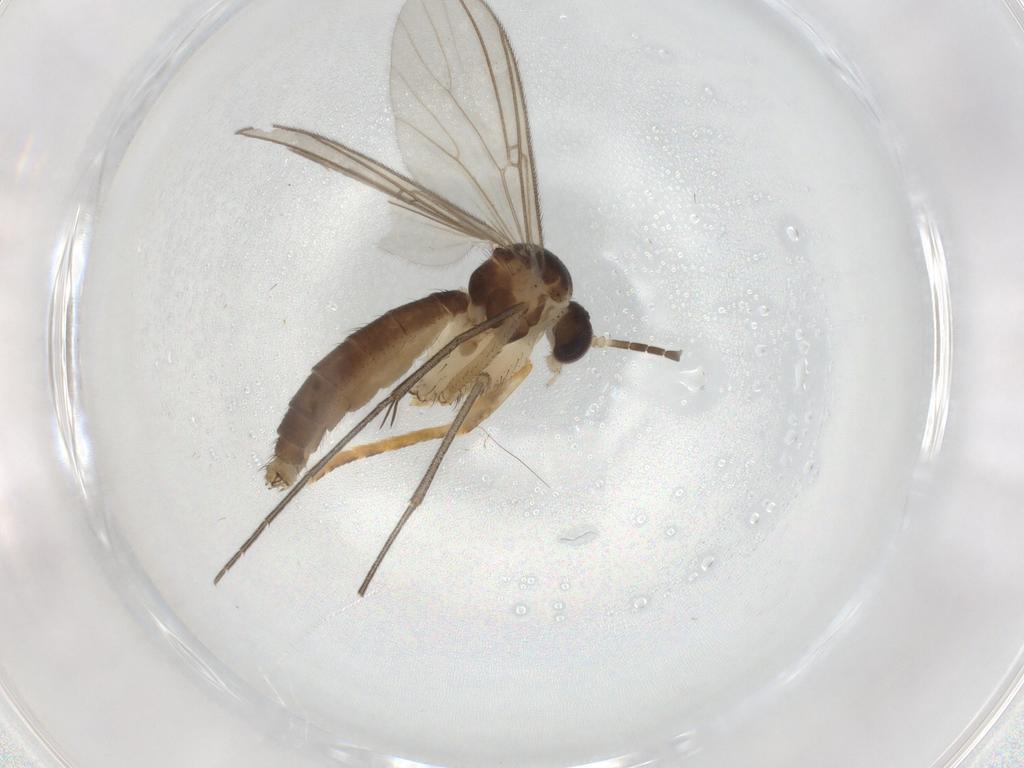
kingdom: Animalia
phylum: Arthropoda
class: Insecta
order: Diptera
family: Mycetophilidae
